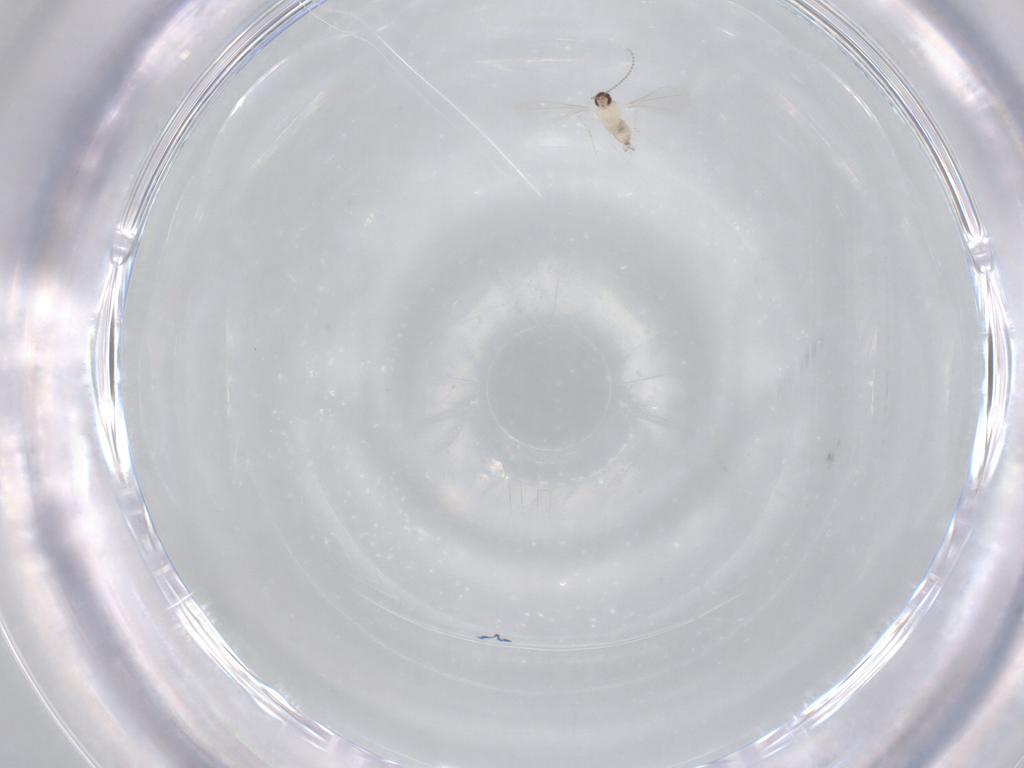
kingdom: Animalia
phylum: Arthropoda
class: Insecta
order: Diptera
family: Cecidomyiidae
